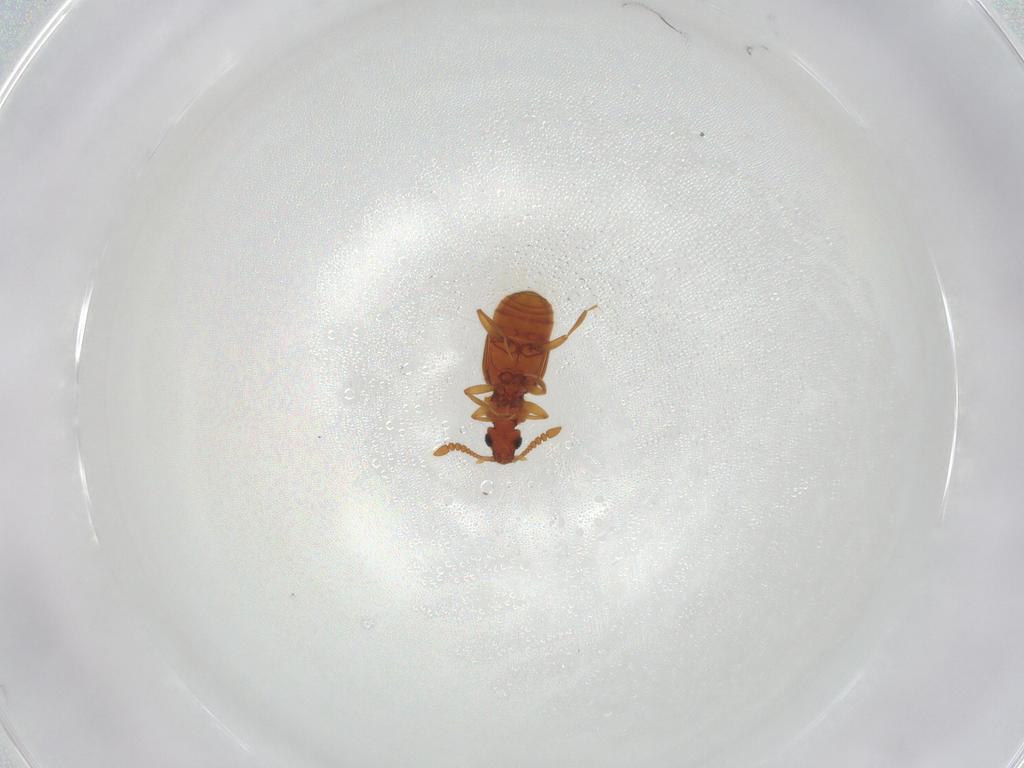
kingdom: Animalia
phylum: Arthropoda
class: Insecta
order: Coleoptera
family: Staphylinidae
